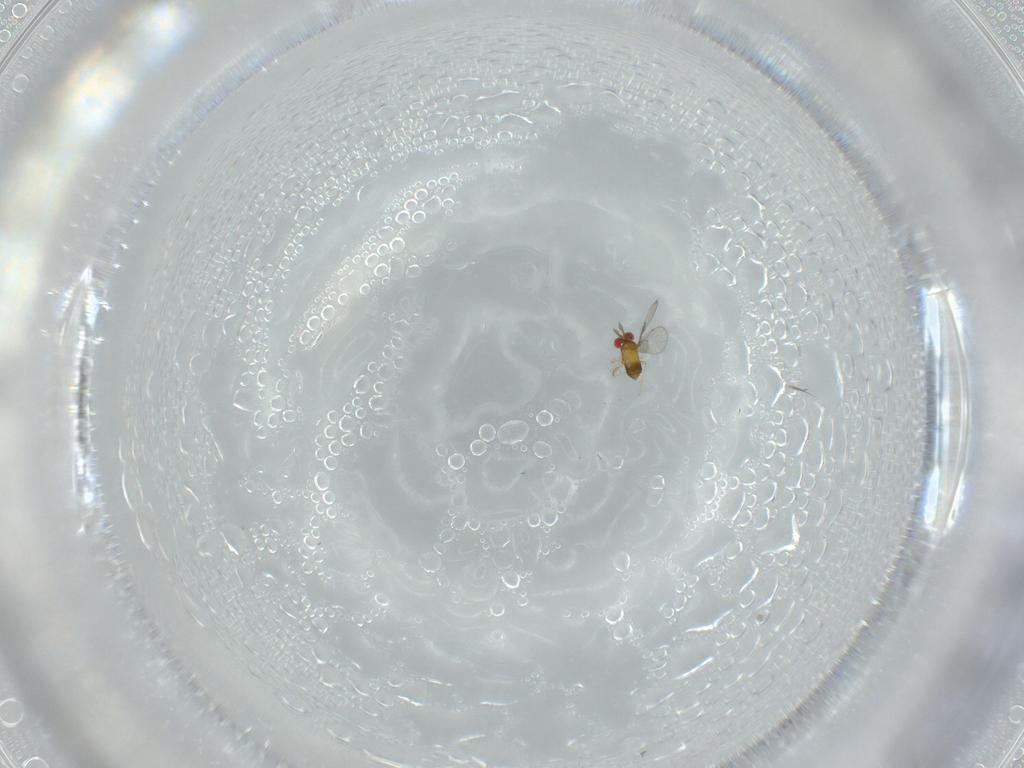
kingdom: Animalia
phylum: Arthropoda
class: Insecta
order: Hymenoptera
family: Trichogrammatidae
